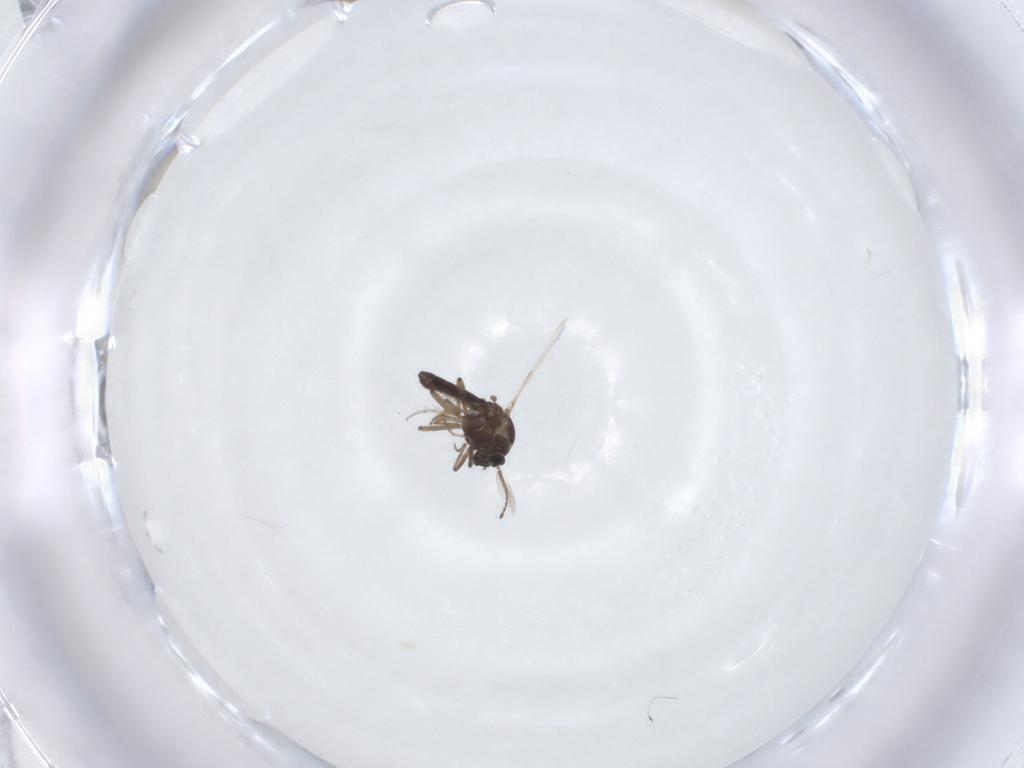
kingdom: Animalia
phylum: Arthropoda
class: Insecta
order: Diptera
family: Ceratopogonidae
